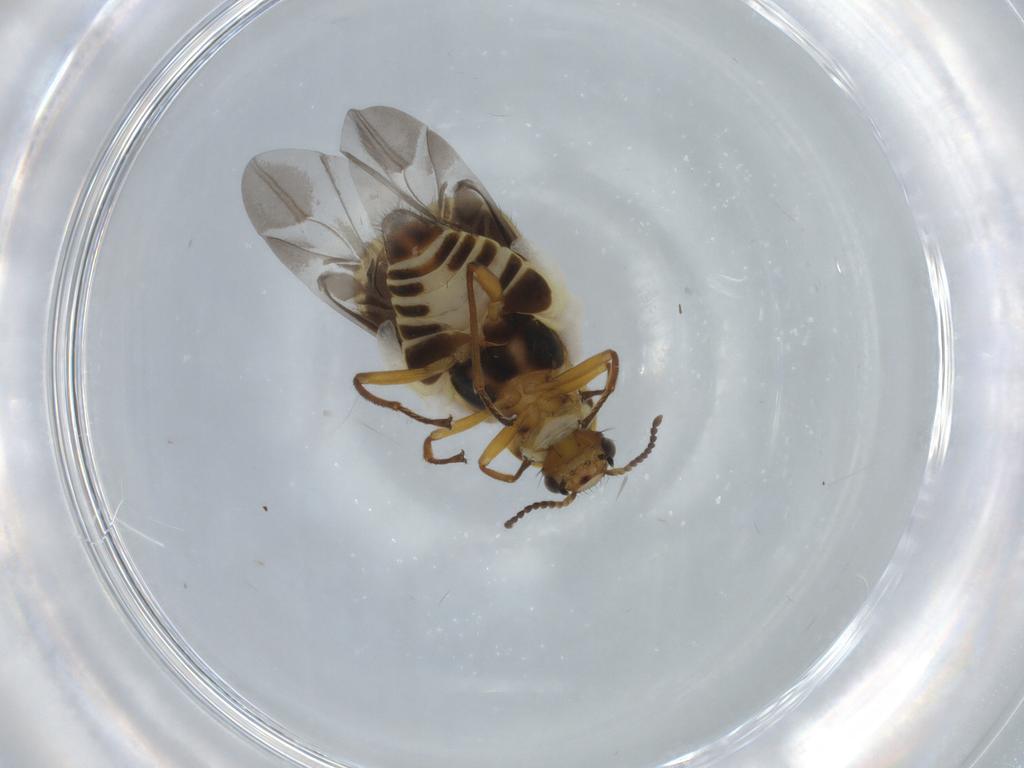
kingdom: Animalia
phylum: Arthropoda
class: Insecta
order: Coleoptera
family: Melyridae
